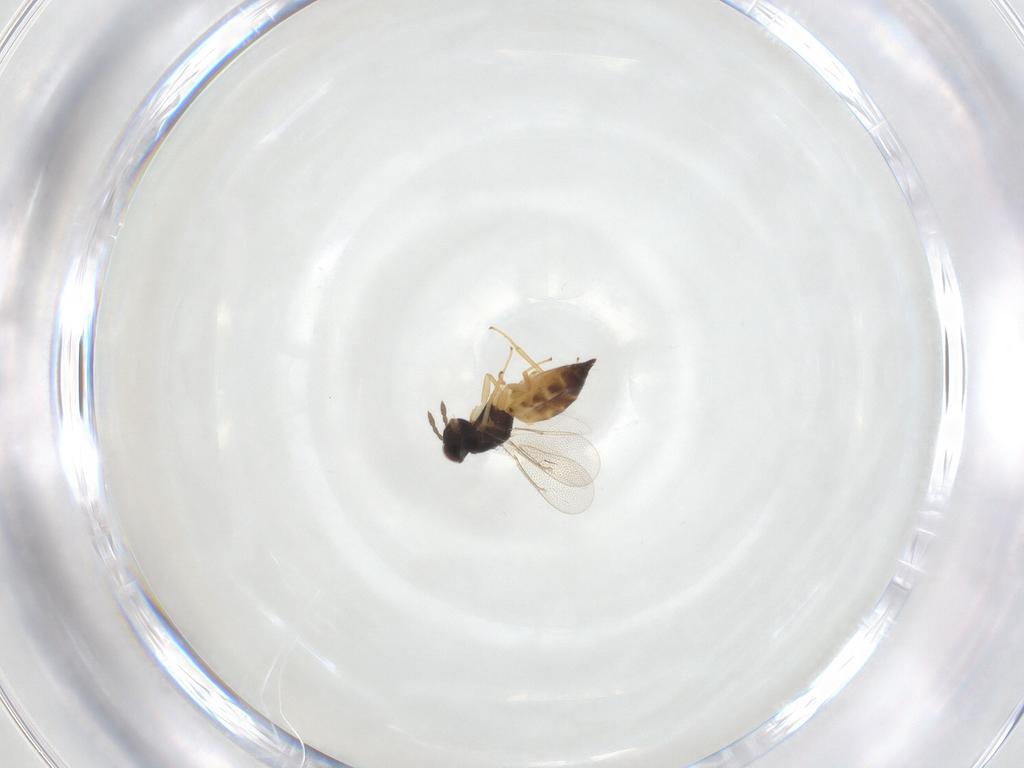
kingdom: Animalia
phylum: Arthropoda
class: Insecta
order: Hymenoptera
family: Eulophidae
